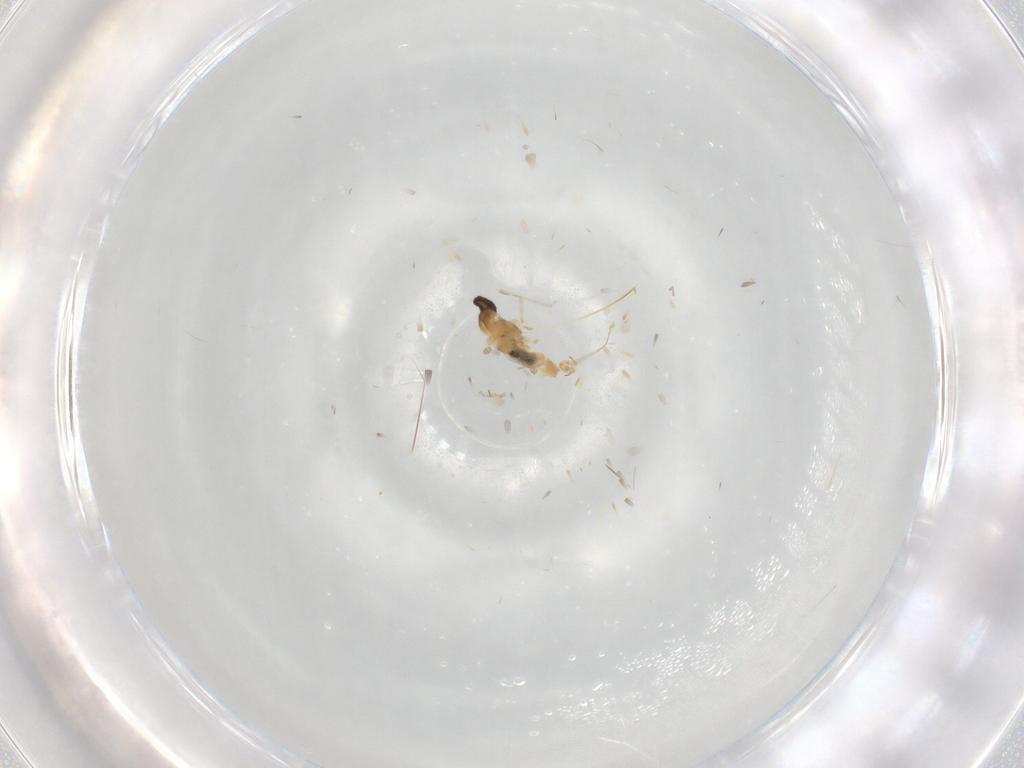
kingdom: Animalia
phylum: Arthropoda
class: Insecta
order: Diptera
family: Cecidomyiidae
